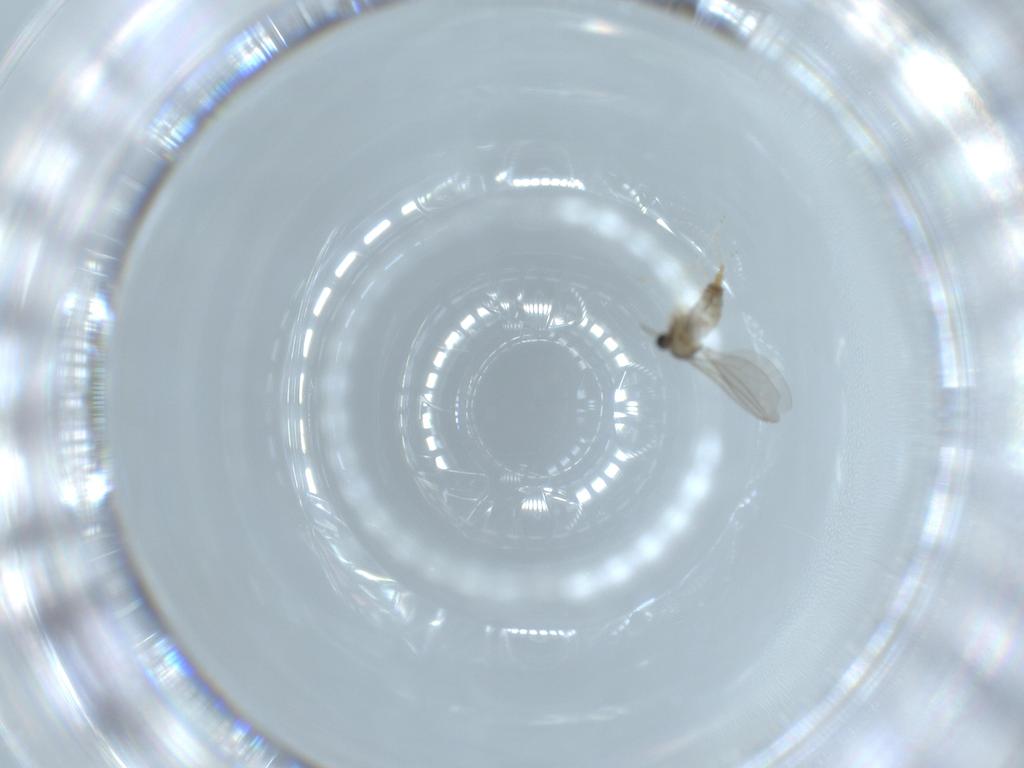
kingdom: Animalia
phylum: Arthropoda
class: Insecta
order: Diptera
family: Cecidomyiidae
